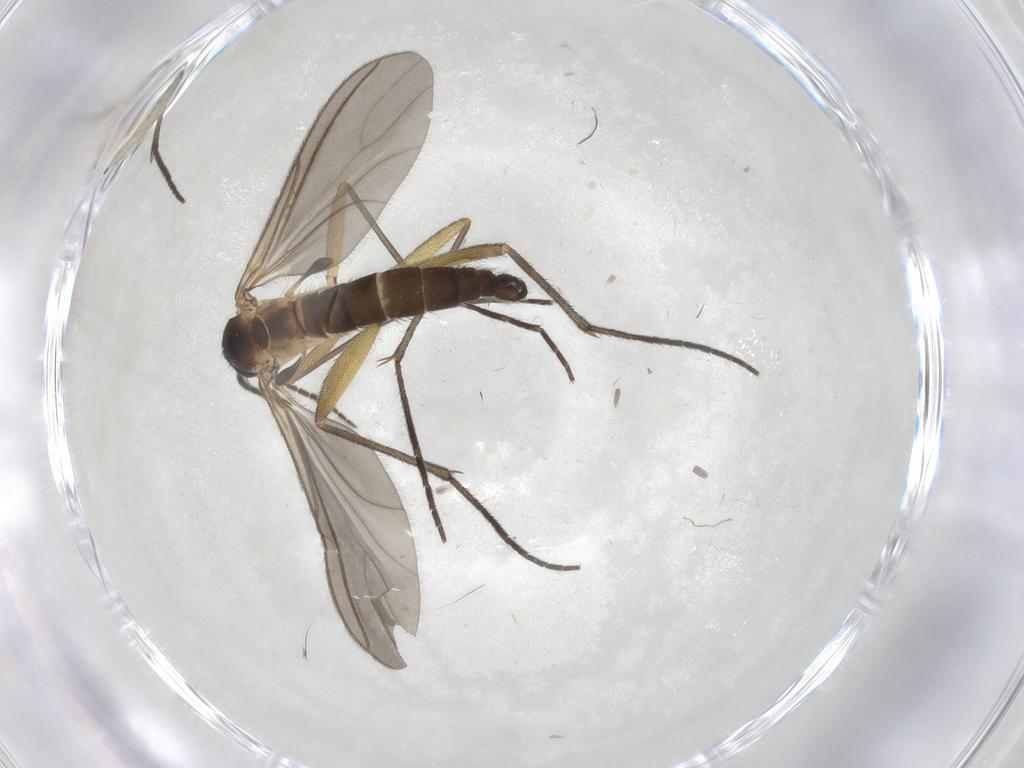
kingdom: Animalia
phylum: Arthropoda
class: Insecta
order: Diptera
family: Sciaridae
